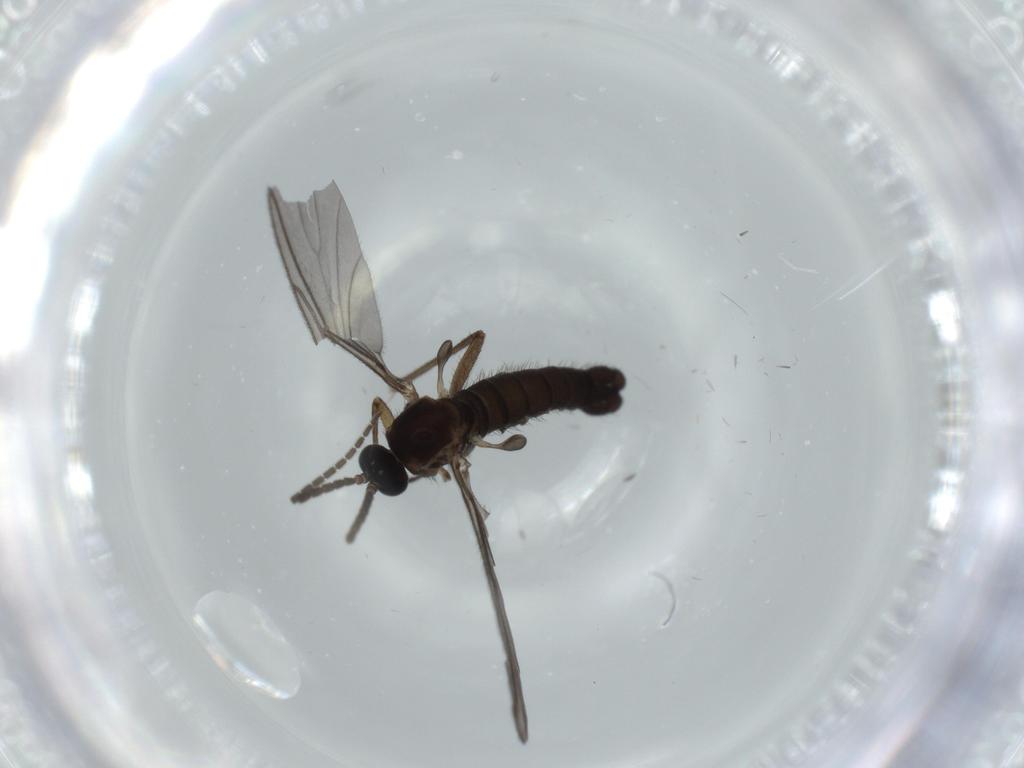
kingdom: Animalia
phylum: Arthropoda
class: Insecta
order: Diptera
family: Sciaridae
